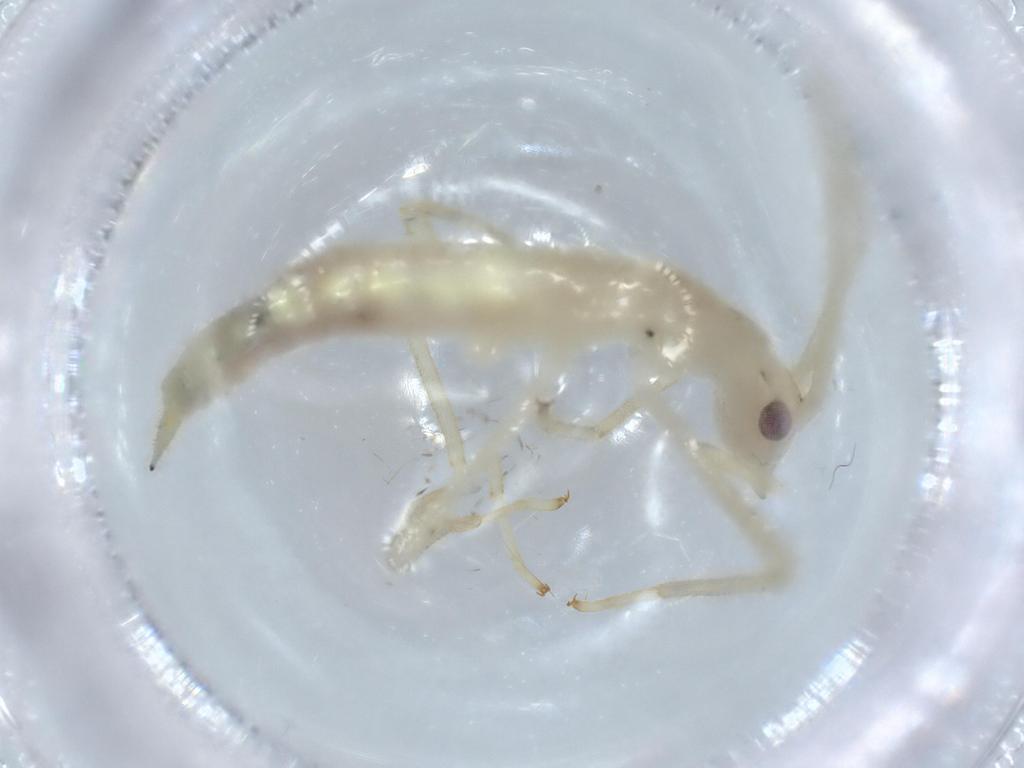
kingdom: Animalia
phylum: Arthropoda
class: Insecta
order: Orthoptera
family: Oecanthidae
